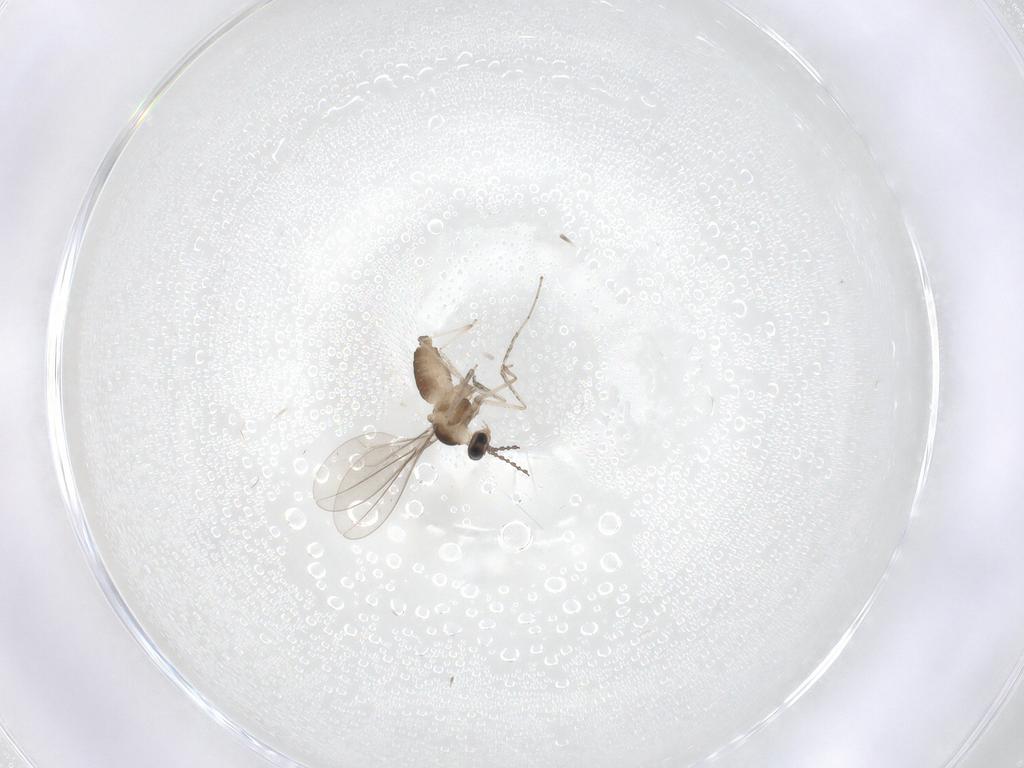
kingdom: Animalia
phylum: Arthropoda
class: Insecta
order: Diptera
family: Cecidomyiidae
